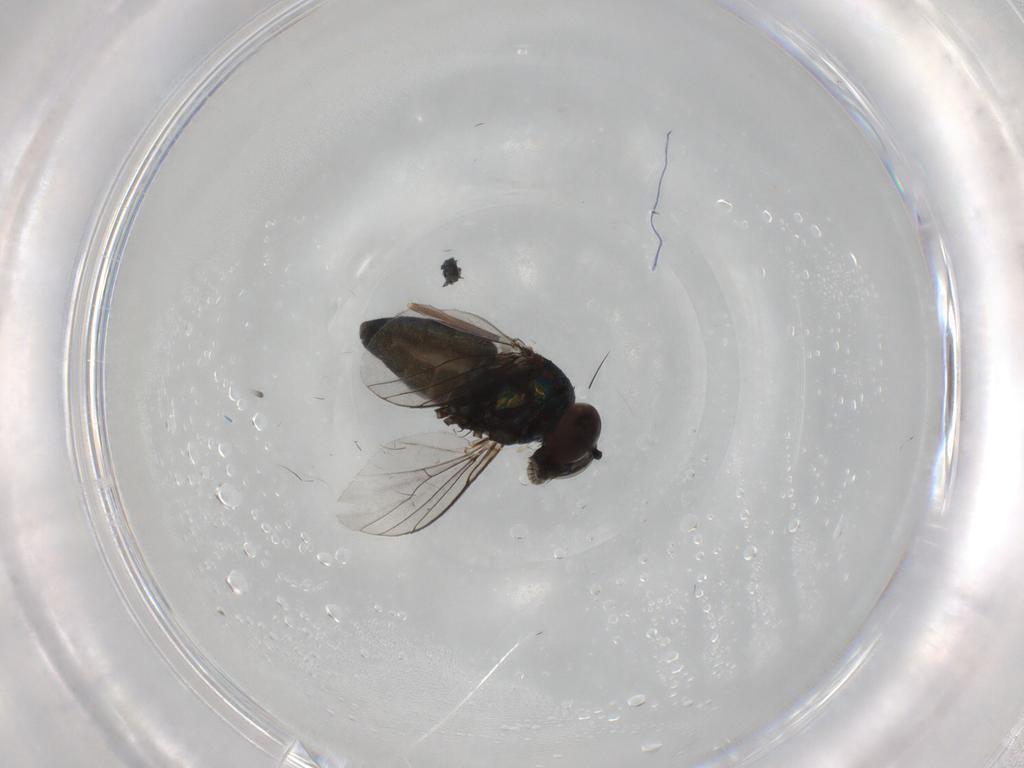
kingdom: Animalia
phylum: Arthropoda
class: Insecta
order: Diptera
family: Dolichopodidae
